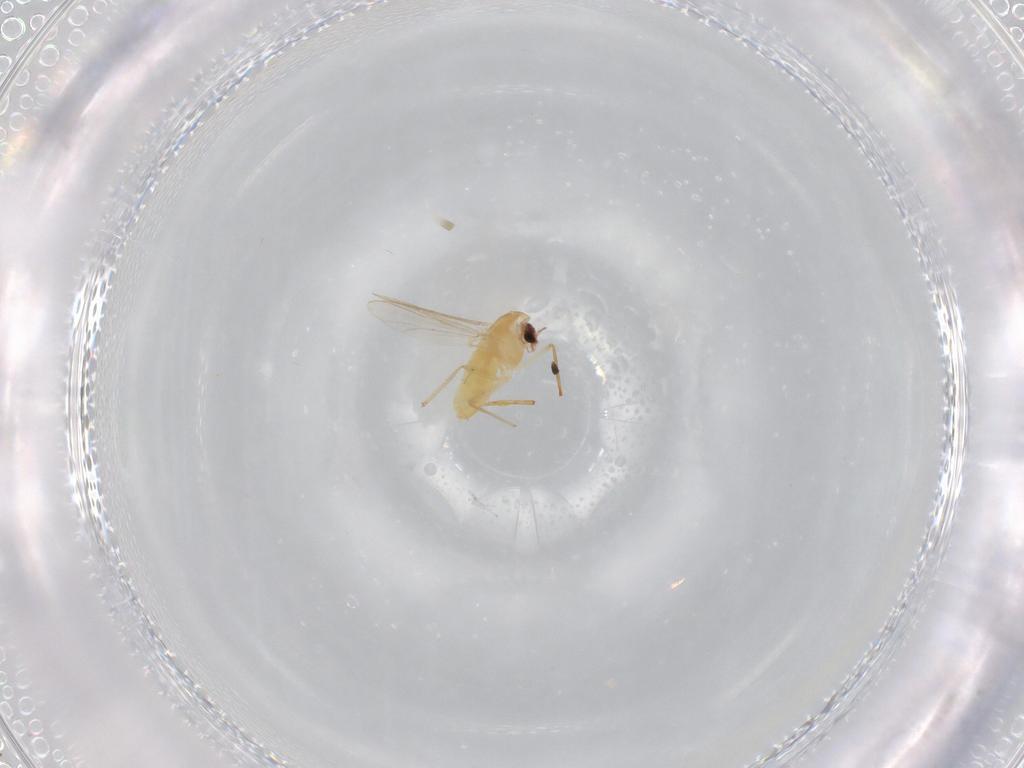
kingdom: Animalia
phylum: Arthropoda
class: Insecta
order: Diptera
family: Chironomidae
